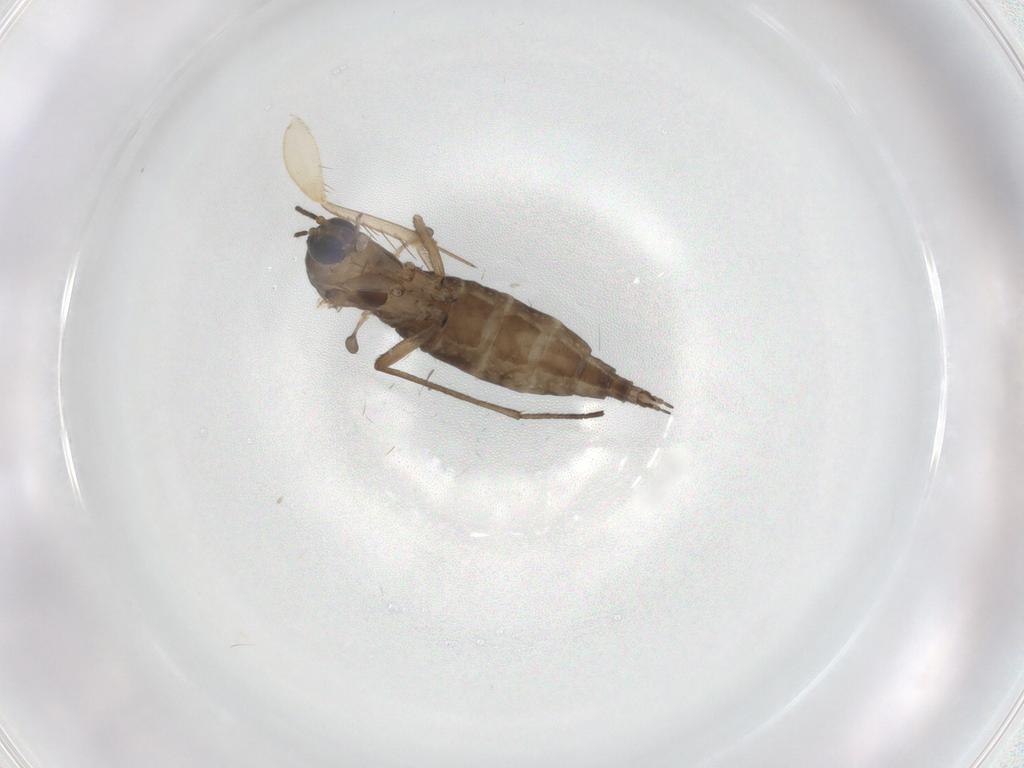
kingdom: Animalia
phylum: Arthropoda
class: Insecta
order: Diptera
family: Mycetophilidae
